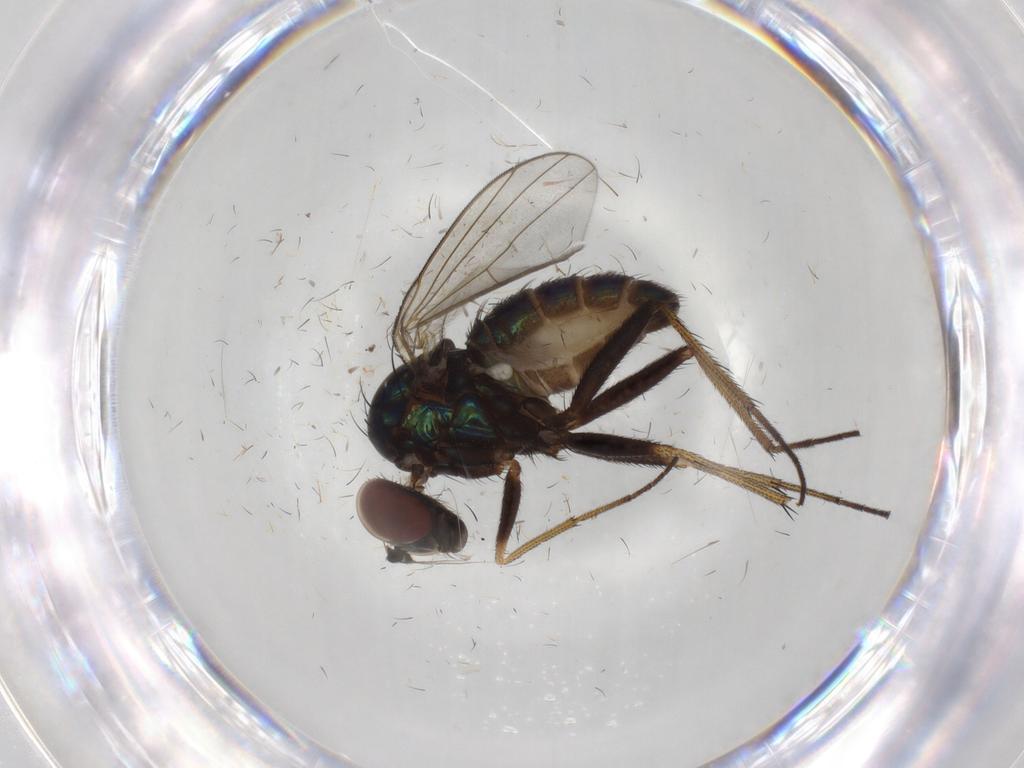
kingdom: Animalia
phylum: Arthropoda
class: Insecta
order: Diptera
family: Dolichopodidae
